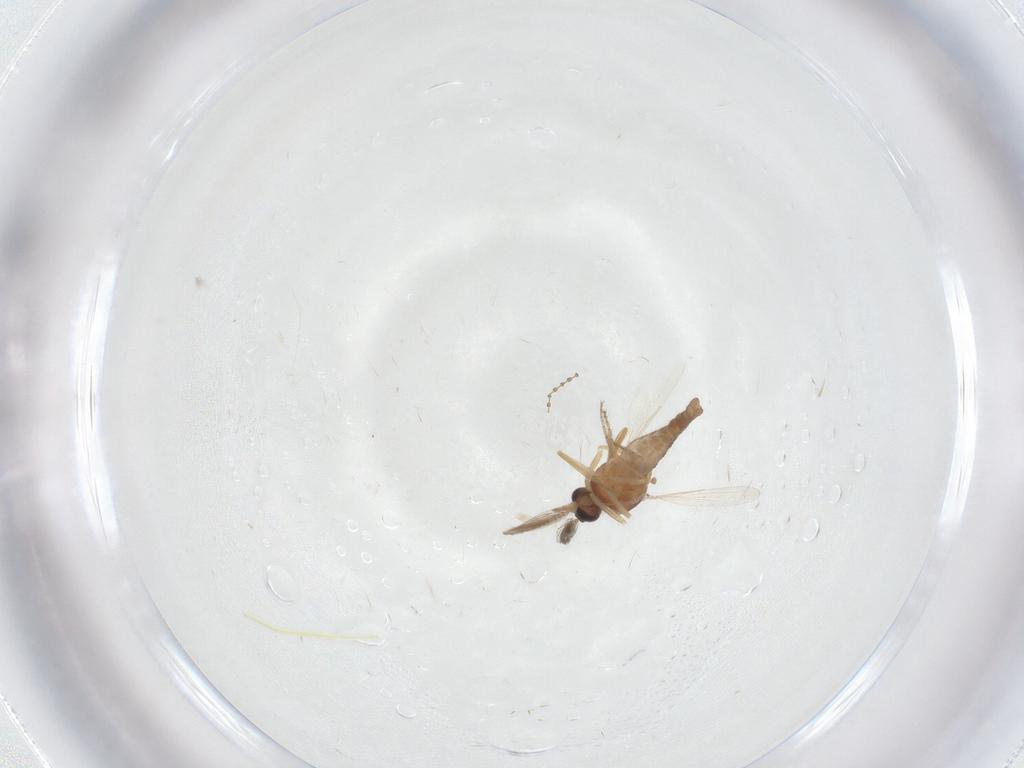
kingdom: Animalia
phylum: Arthropoda
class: Insecta
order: Diptera
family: Ceratopogonidae
